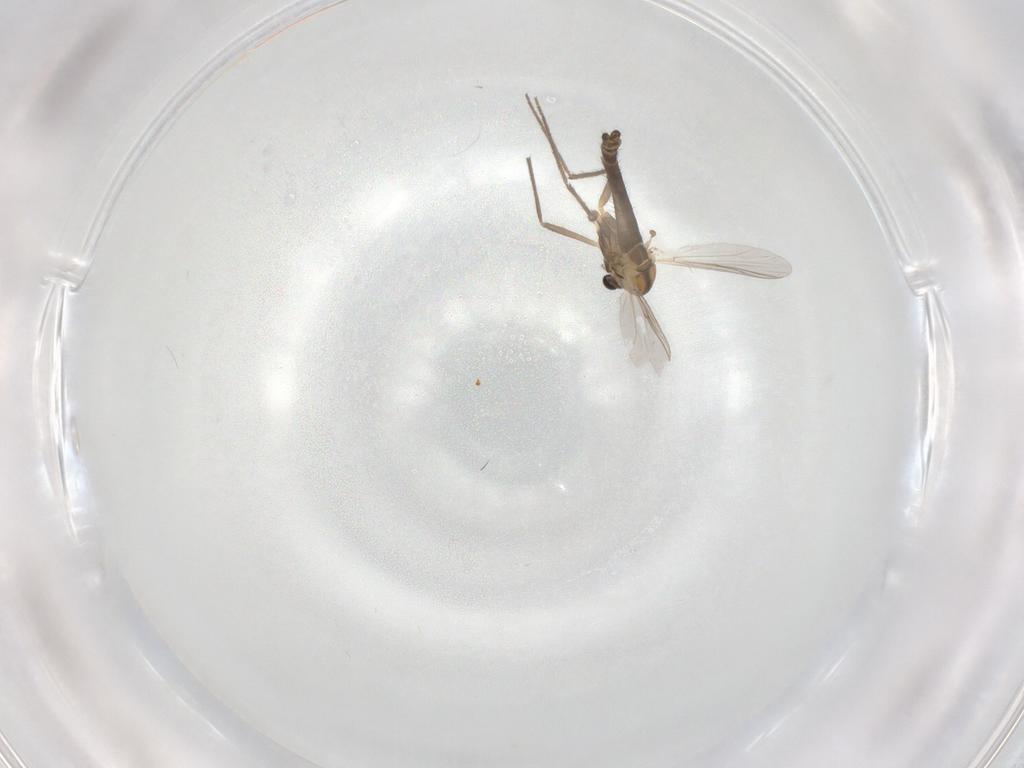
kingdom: Animalia
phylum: Arthropoda
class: Insecta
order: Diptera
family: Chironomidae
